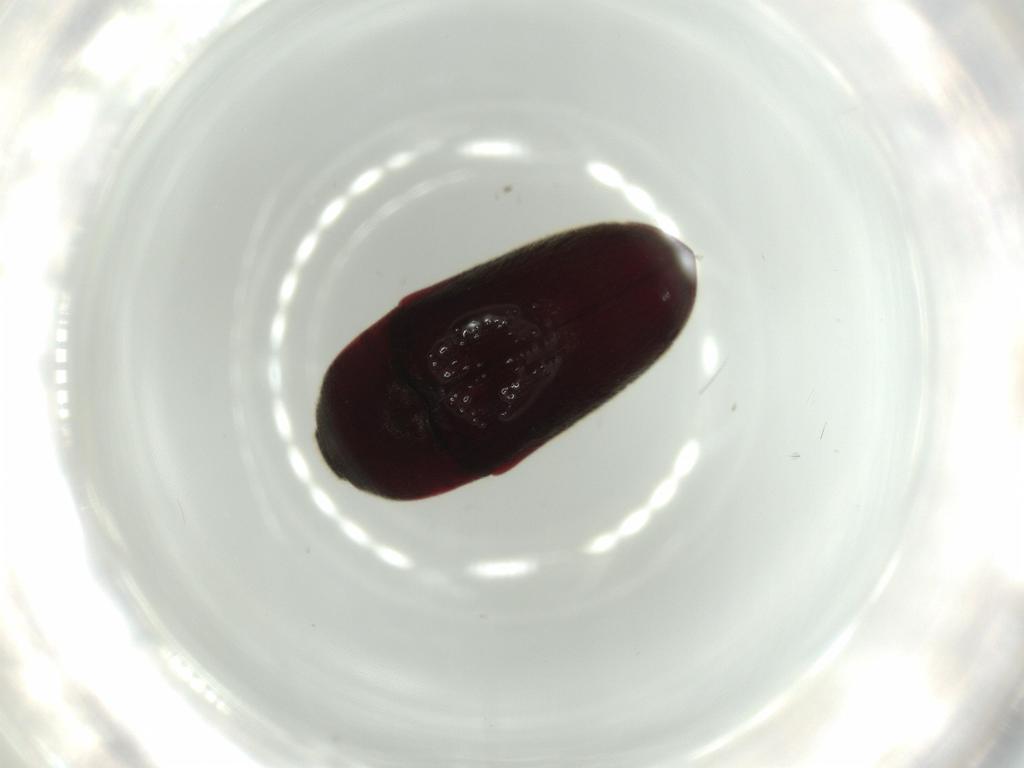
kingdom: Animalia
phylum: Arthropoda
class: Insecta
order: Coleoptera
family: Throscidae
